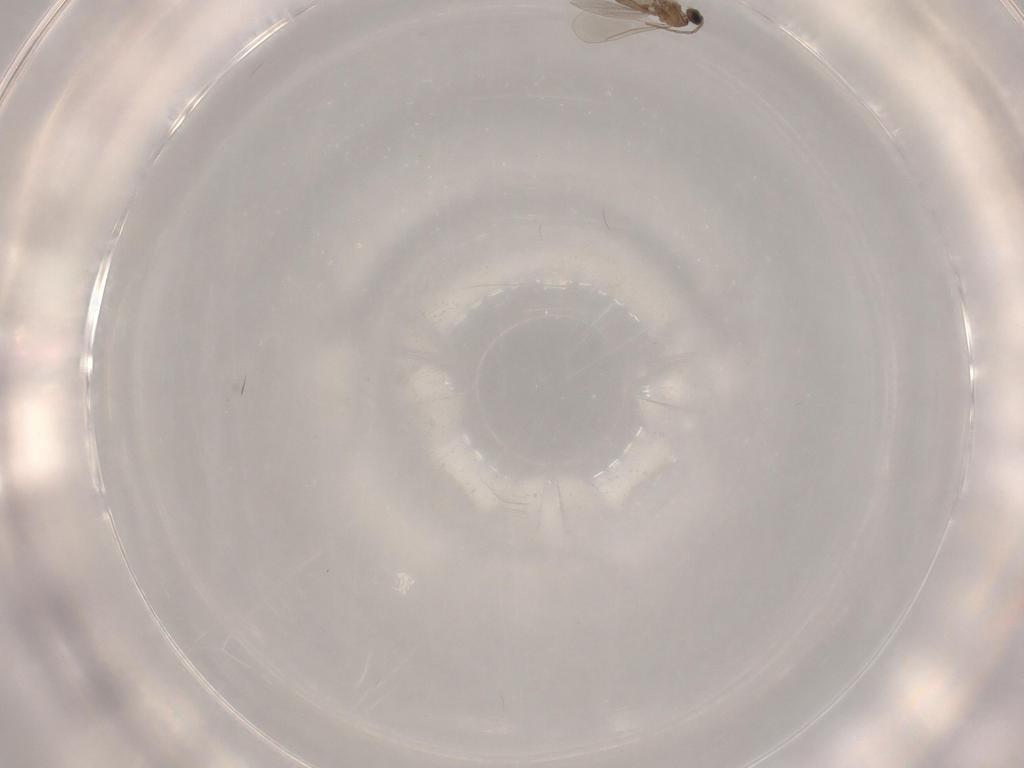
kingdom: Animalia
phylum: Arthropoda
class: Insecta
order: Diptera
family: Cecidomyiidae
